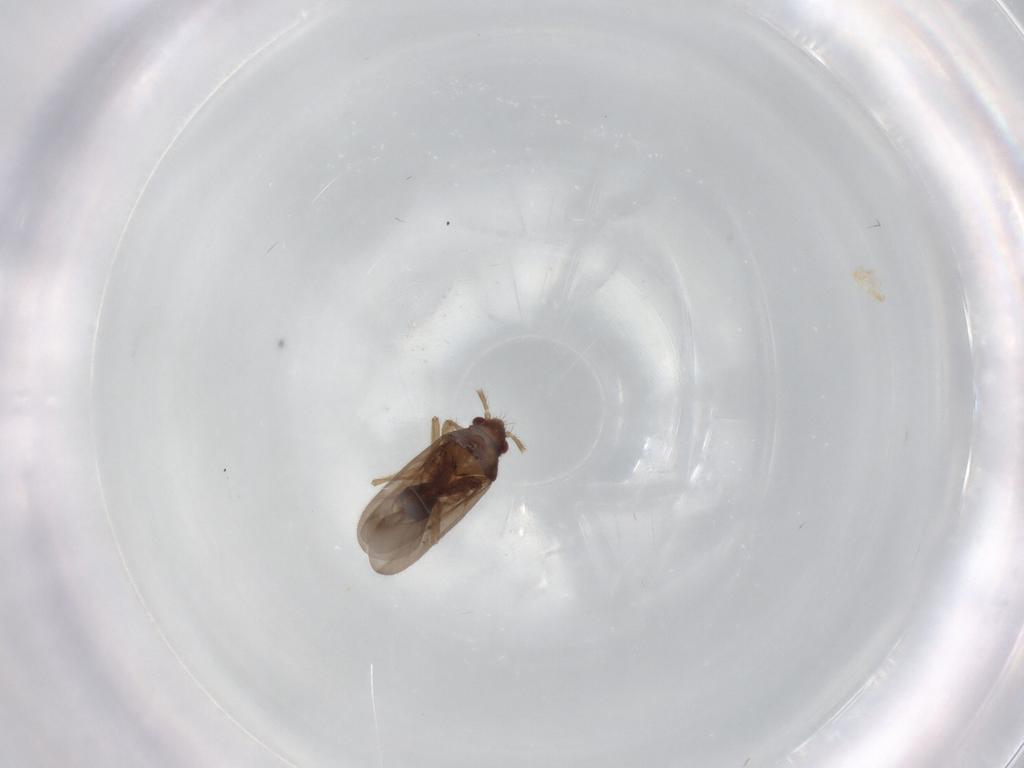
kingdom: Animalia
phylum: Arthropoda
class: Insecta
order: Hemiptera
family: Ceratocombidae
